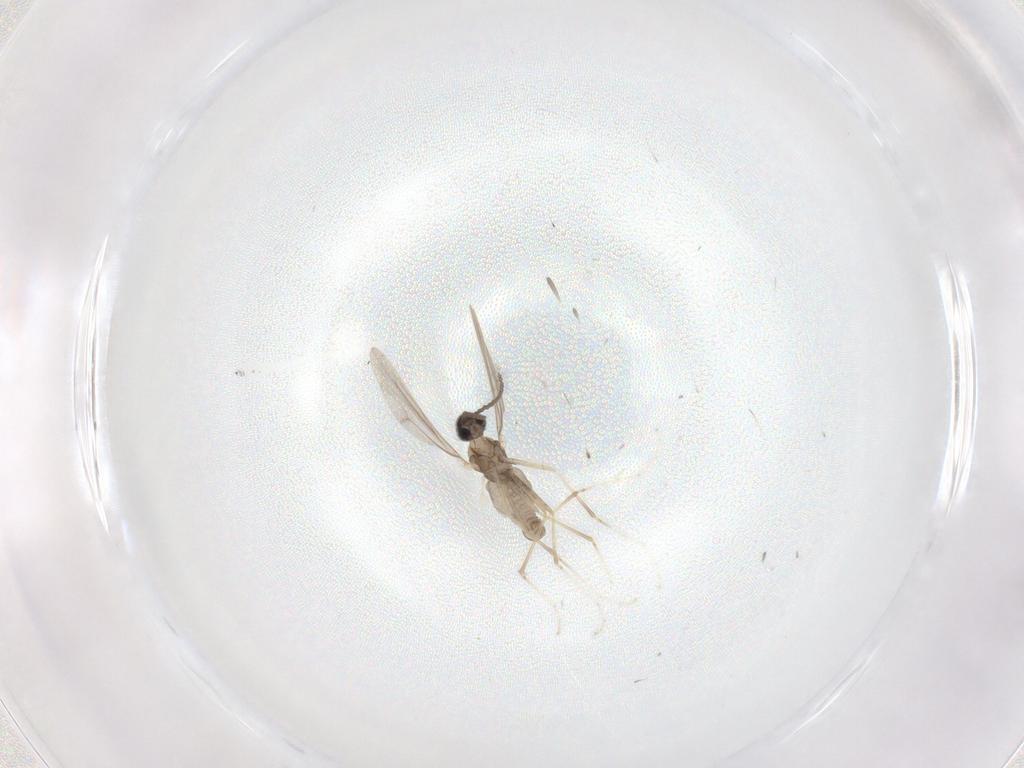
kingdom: Animalia
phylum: Arthropoda
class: Insecta
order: Diptera
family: Cecidomyiidae
